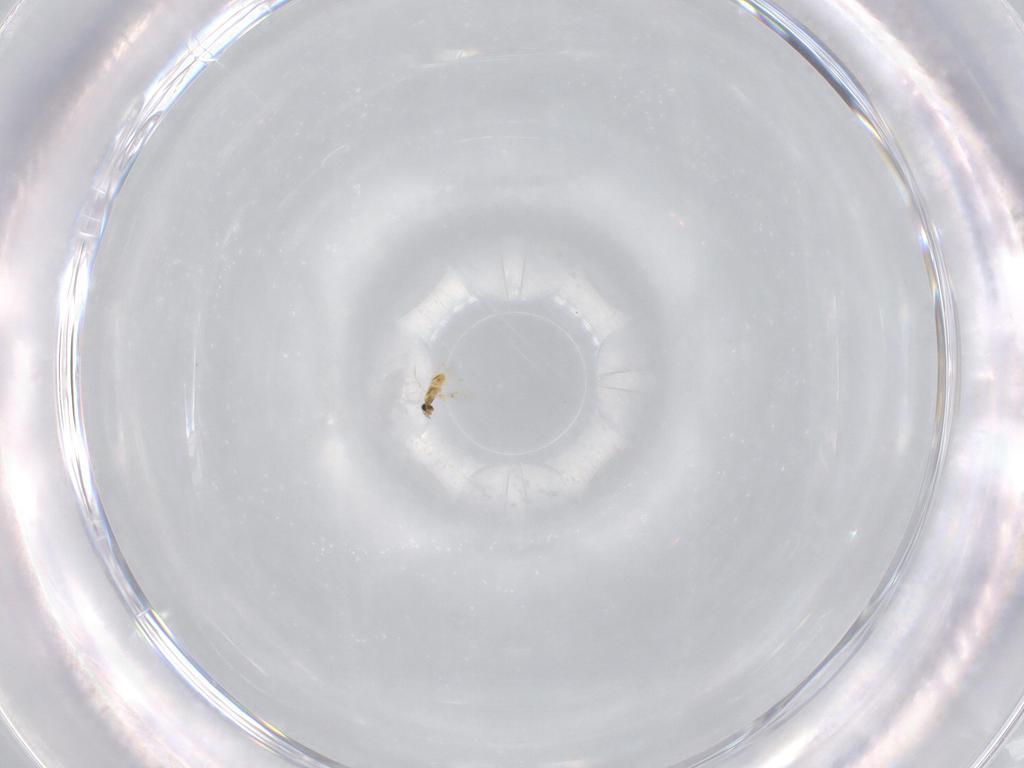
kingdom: Animalia
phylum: Arthropoda
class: Insecta
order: Hymenoptera
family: Trichogrammatidae
